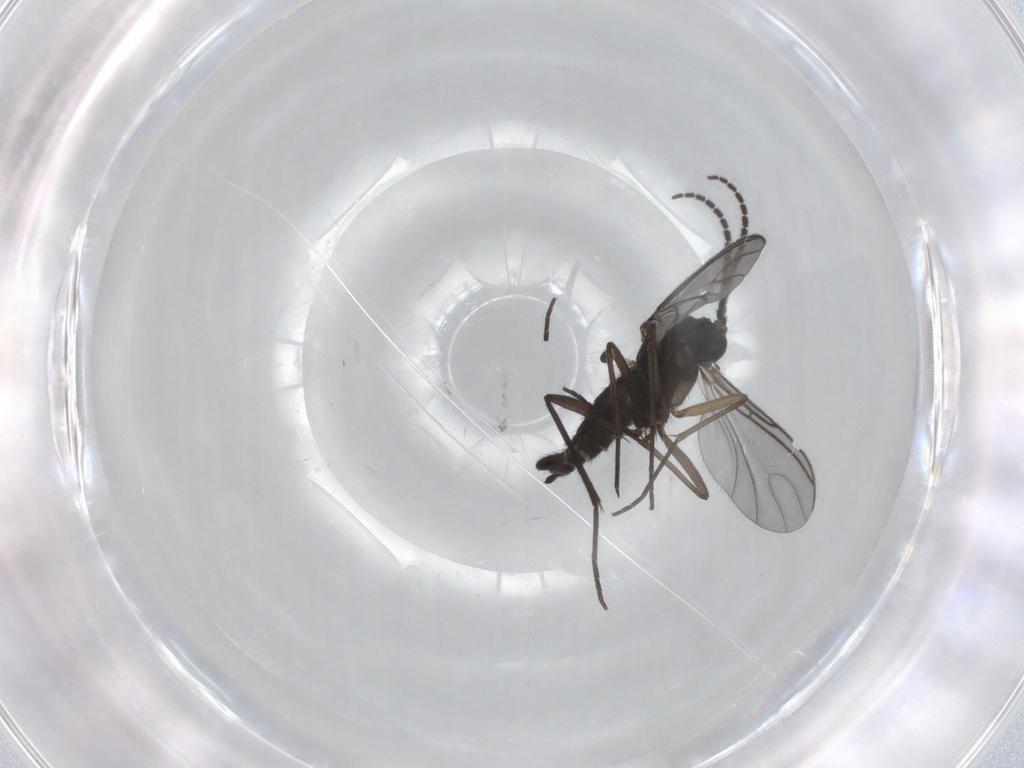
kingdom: Animalia
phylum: Arthropoda
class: Insecta
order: Diptera
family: Sciaridae
